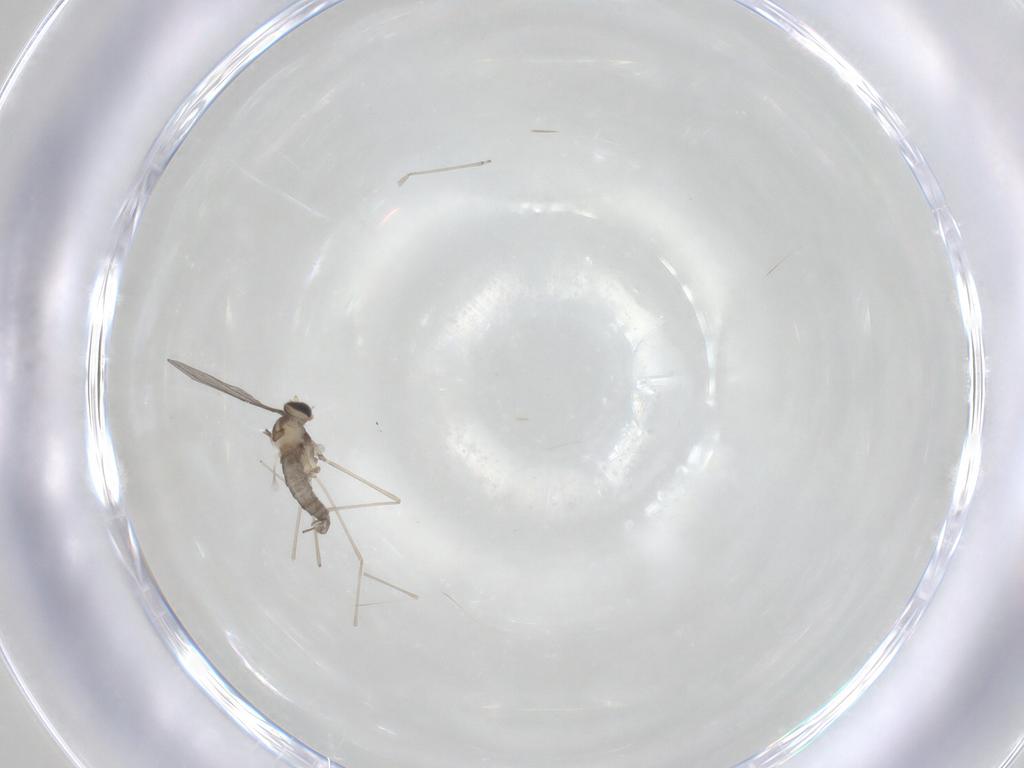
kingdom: Animalia
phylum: Arthropoda
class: Insecta
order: Diptera
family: Cecidomyiidae
